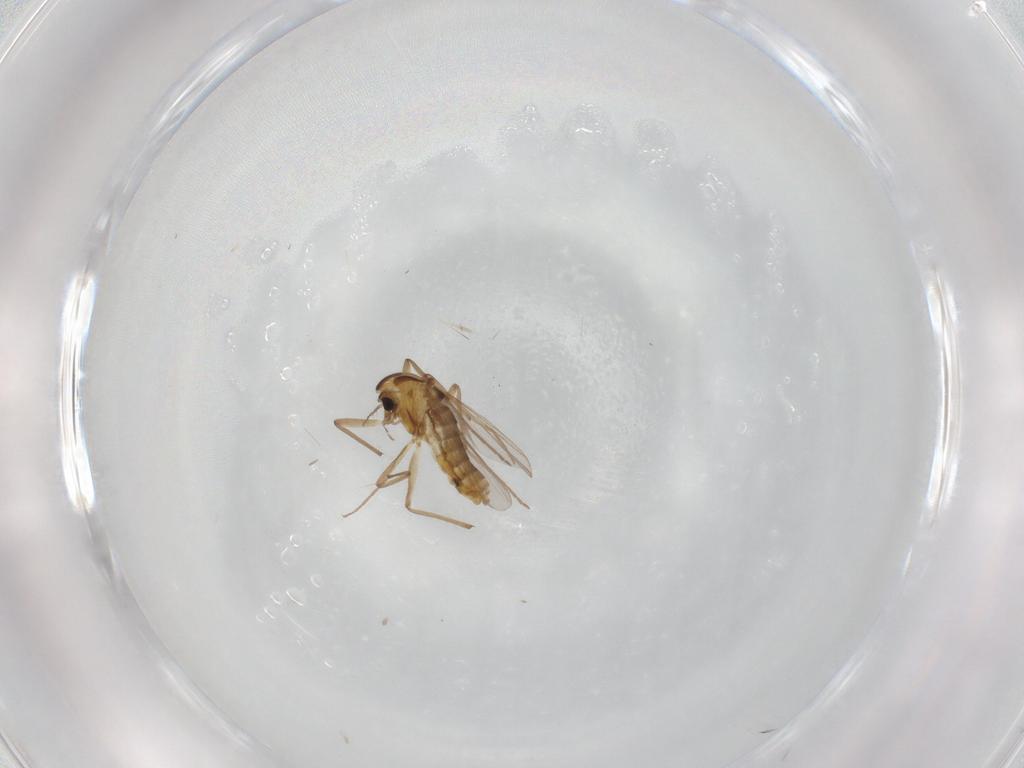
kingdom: Animalia
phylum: Arthropoda
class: Insecta
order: Diptera
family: Chironomidae
